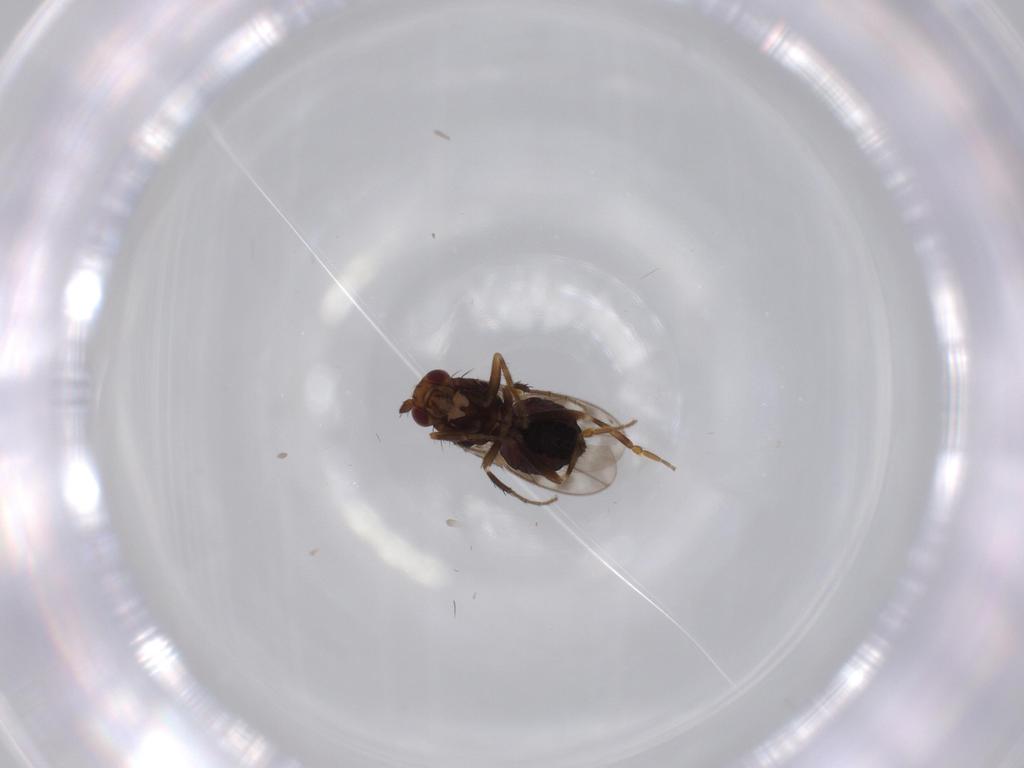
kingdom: Animalia
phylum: Arthropoda
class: Insecta
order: Diptera
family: Sphaeroceridae
